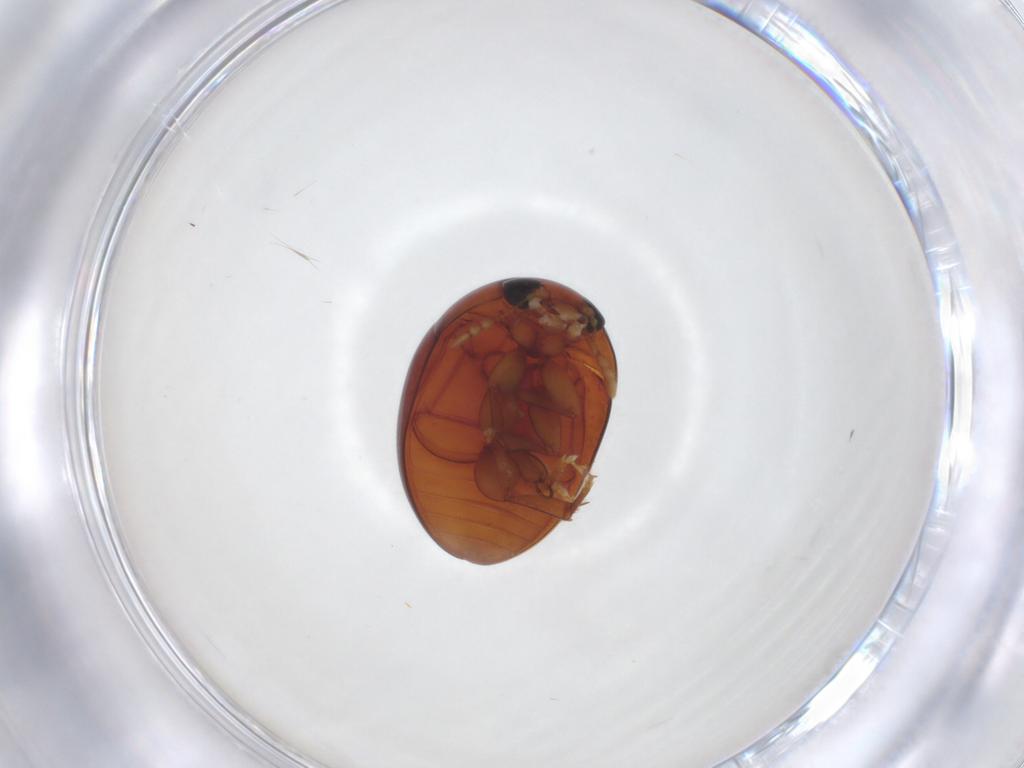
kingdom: Animalia
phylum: Arthropoda
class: Insecta
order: Coleoptera
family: Phalacridae
